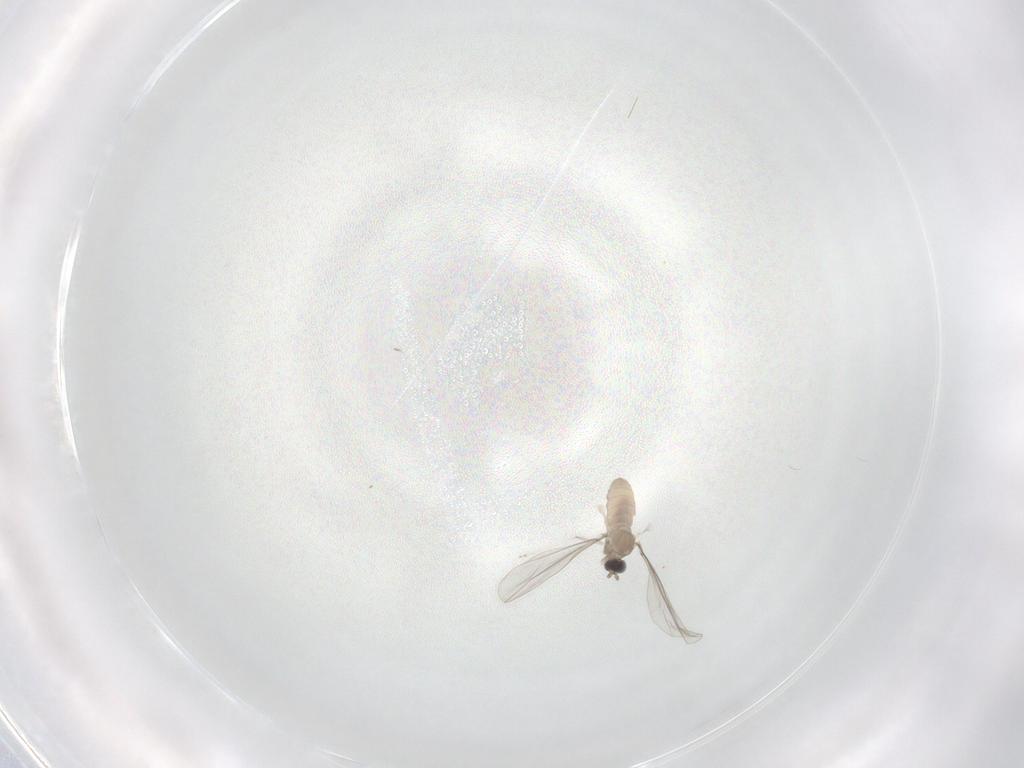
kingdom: Animalia
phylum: Arthropoda
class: Insecta
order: Diptera
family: Cecidomyiidae
